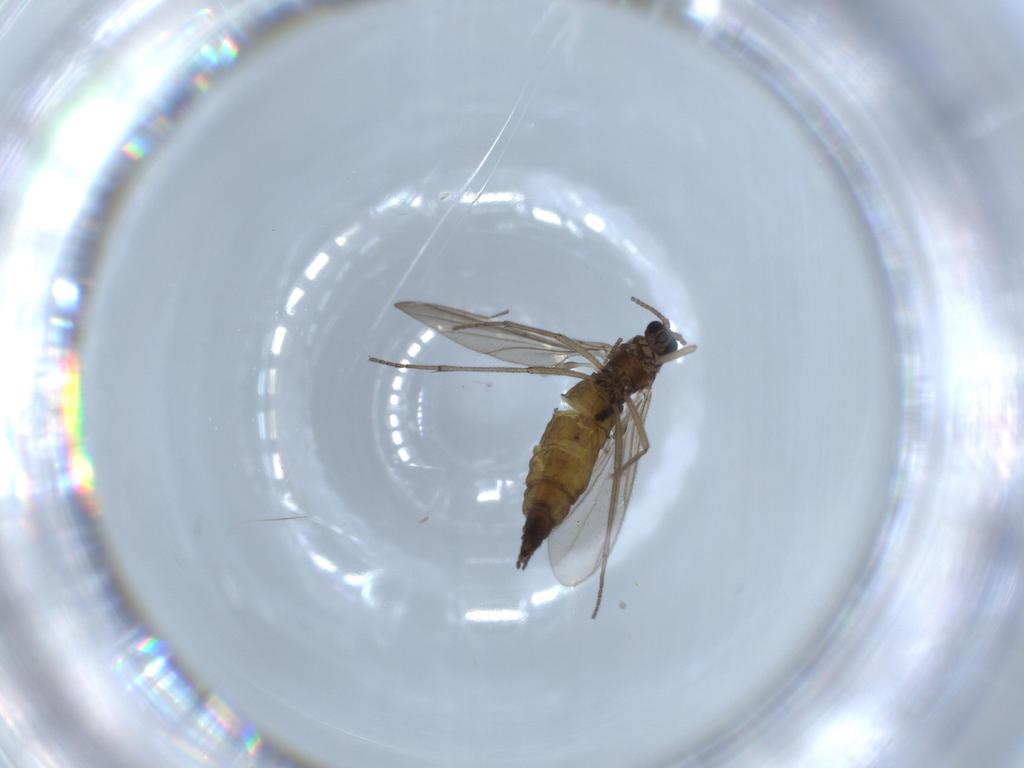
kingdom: Animalia
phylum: Arthropoda
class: Insecta
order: Diptera
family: Sciaridae
